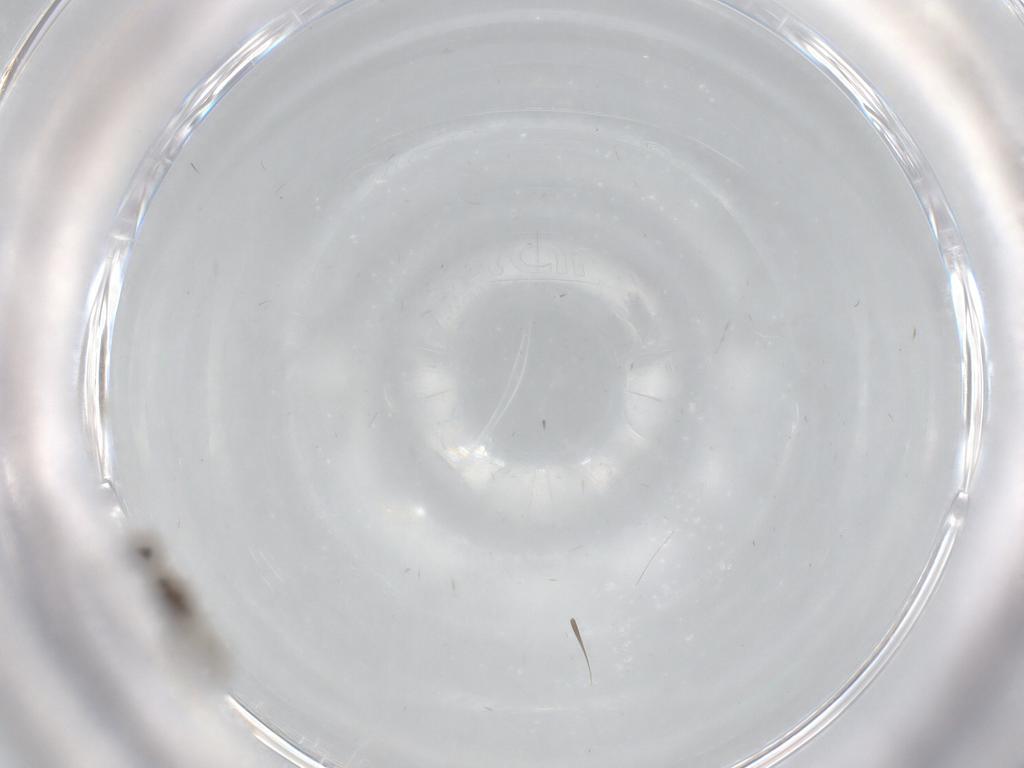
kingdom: Animalia
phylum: Arthropoda
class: Insecta
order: Diptera
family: Cecidomyiidae
